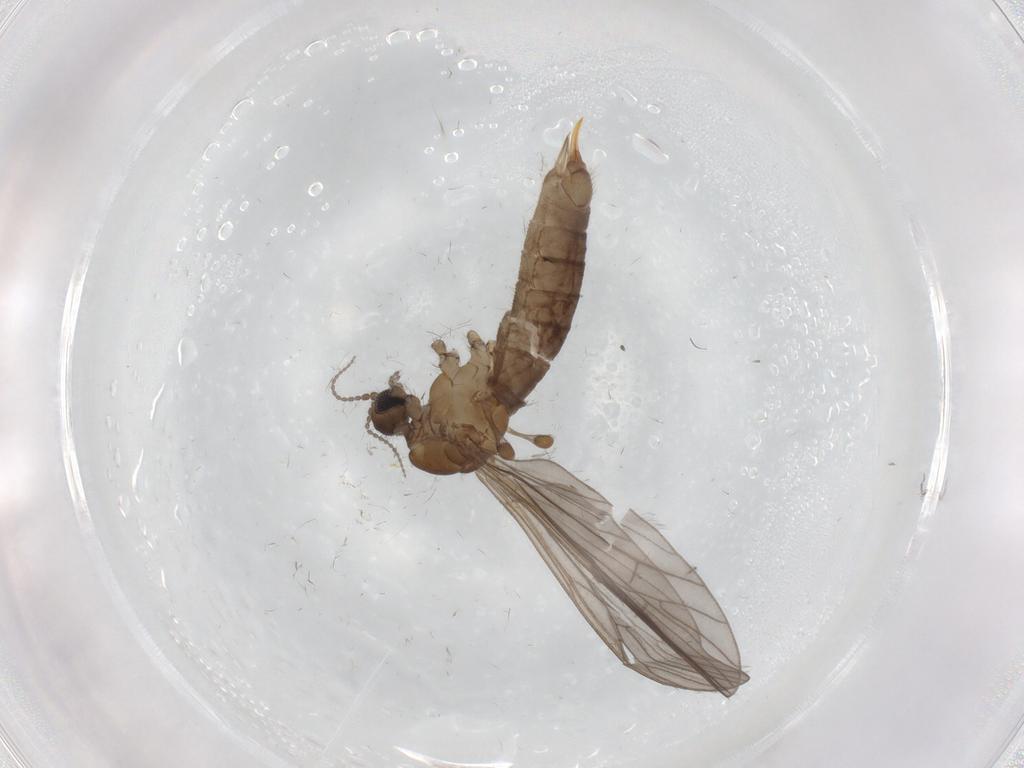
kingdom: Animalia
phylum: Arthropoda
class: Insecta
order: Diptera
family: Limoniidae
